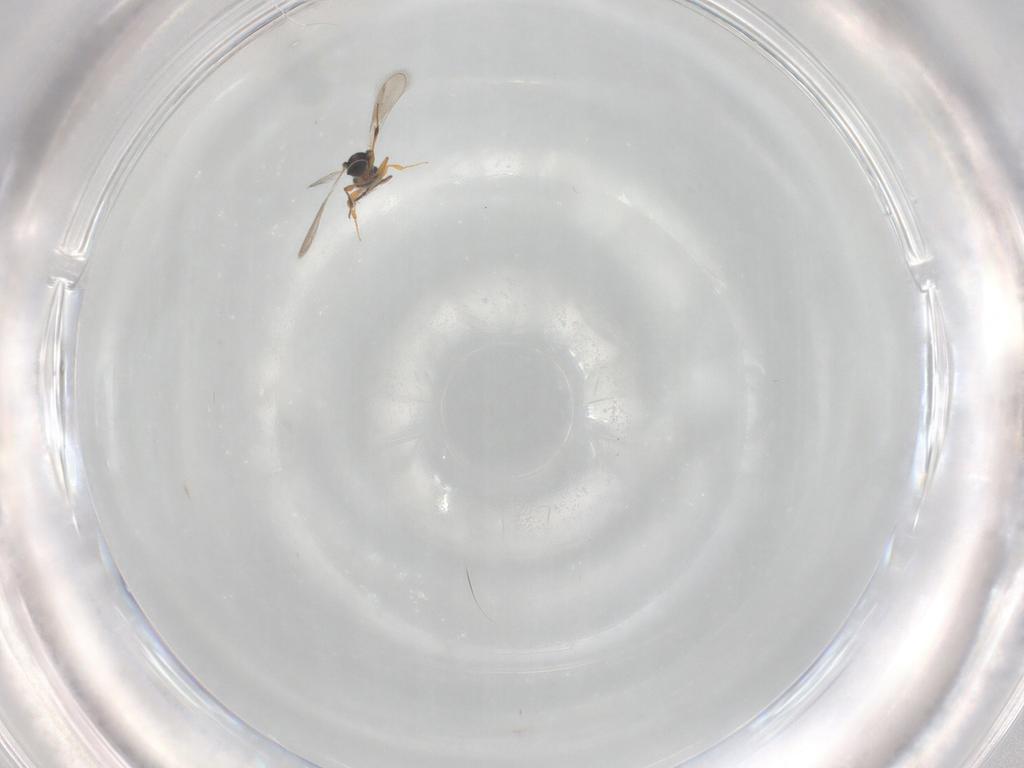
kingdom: Animalia
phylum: Arthropoda
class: Insecta
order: Hymenoptera
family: Platygastridae
